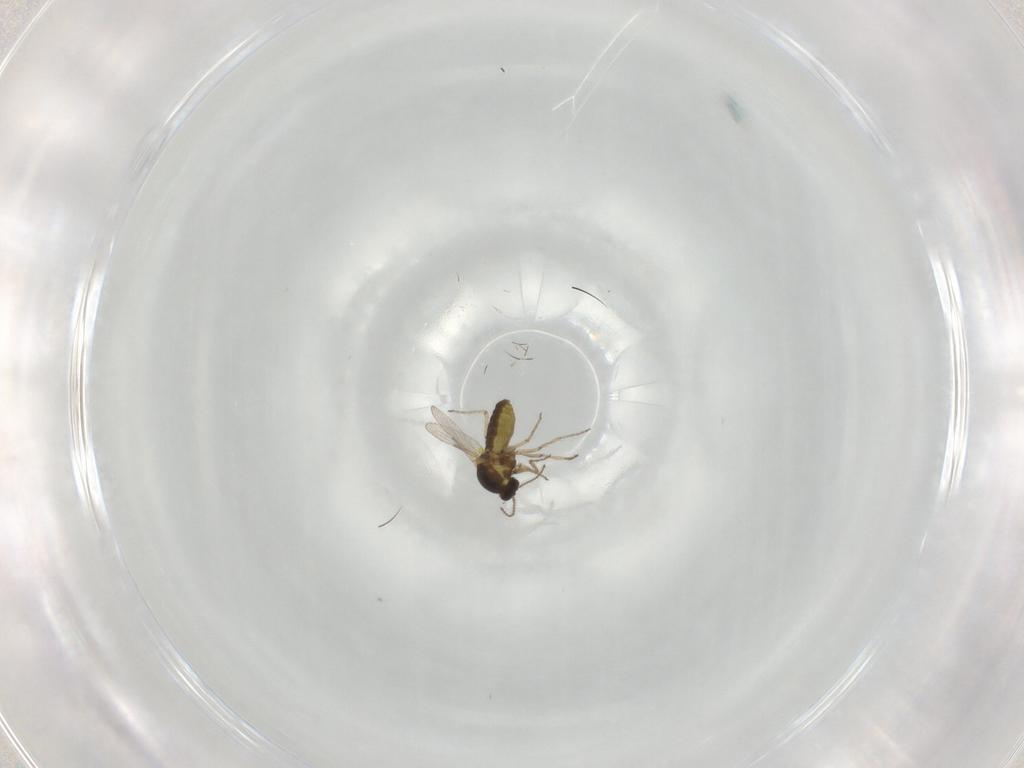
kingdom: Animalia
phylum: Arthropoda
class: Insecta
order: Diptera
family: Ceratopogonidae
